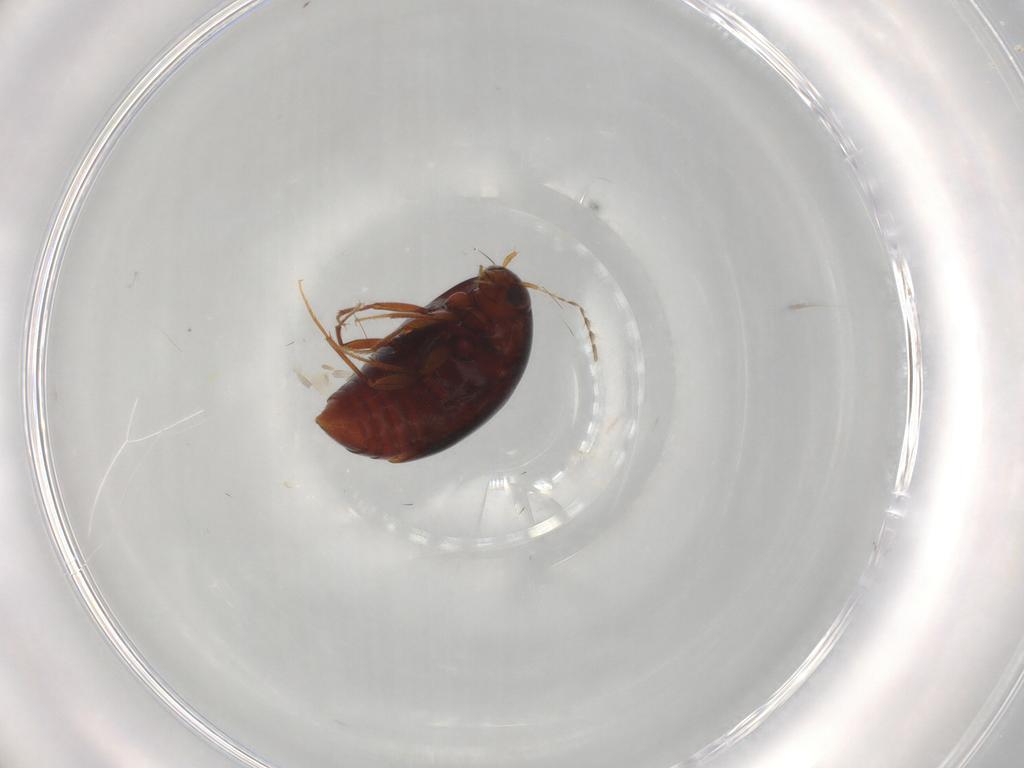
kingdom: Animalia
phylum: Arthropoda
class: Insecta
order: Coleoptera
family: Staphylinidae
